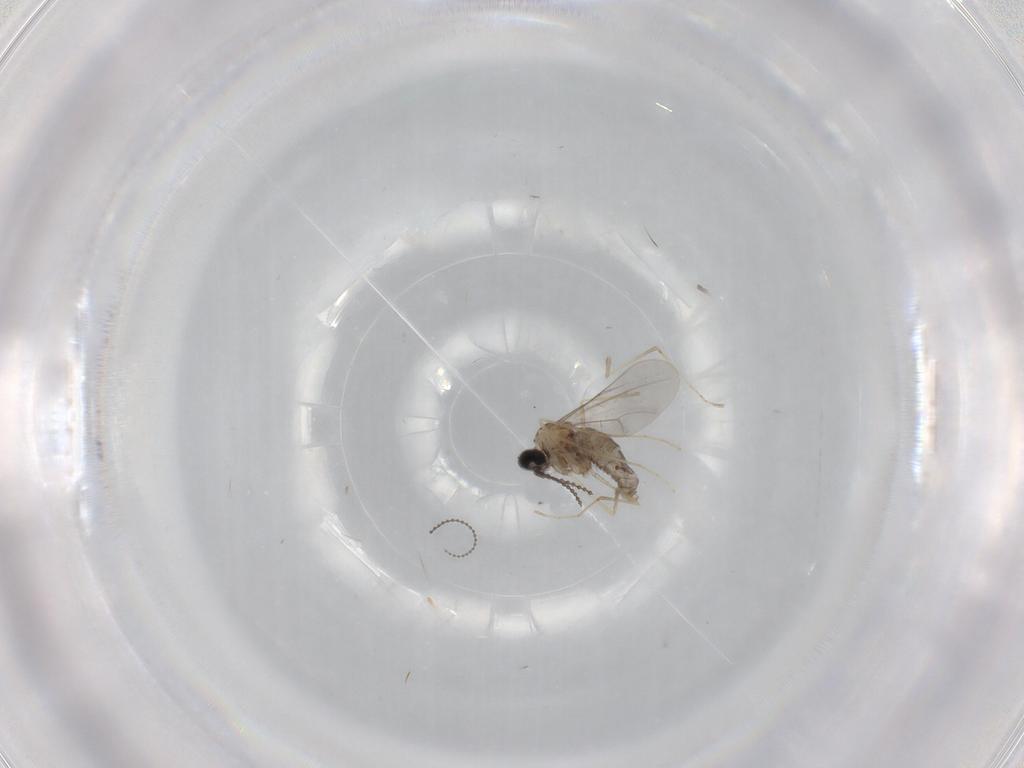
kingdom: Animalia
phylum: Arthropoda
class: Insecta
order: Diptera
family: Cecidomyiidae
